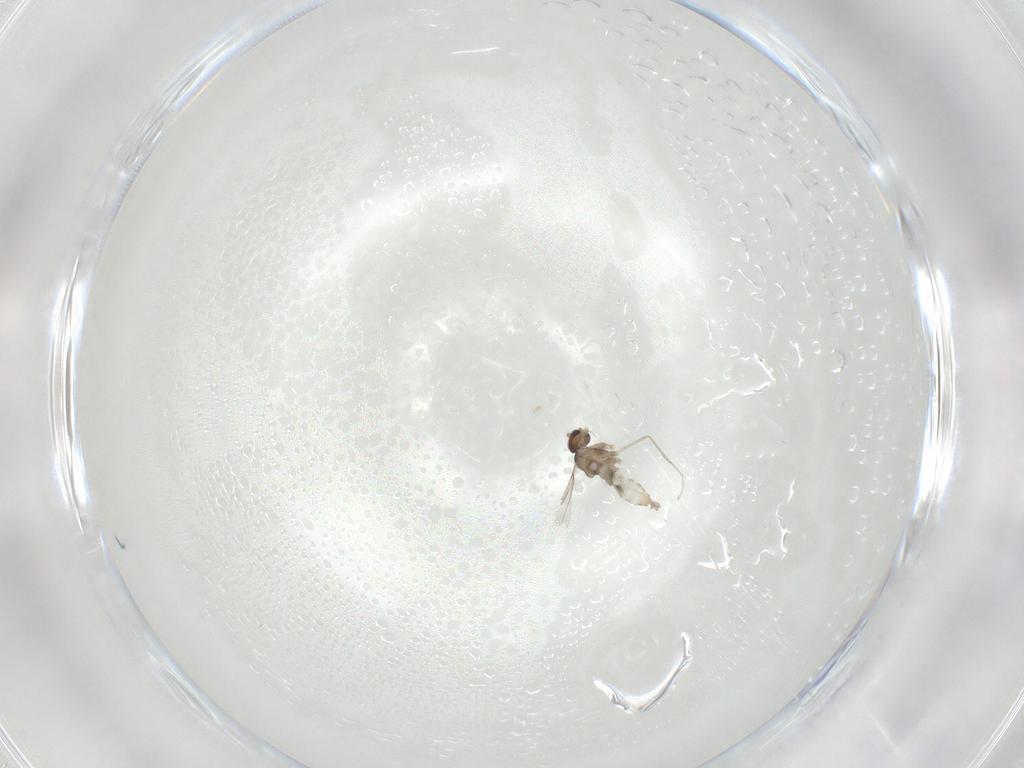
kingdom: Animalia
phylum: Arthropoda
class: Insecta
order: Diptera
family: Cecidomyiidae
